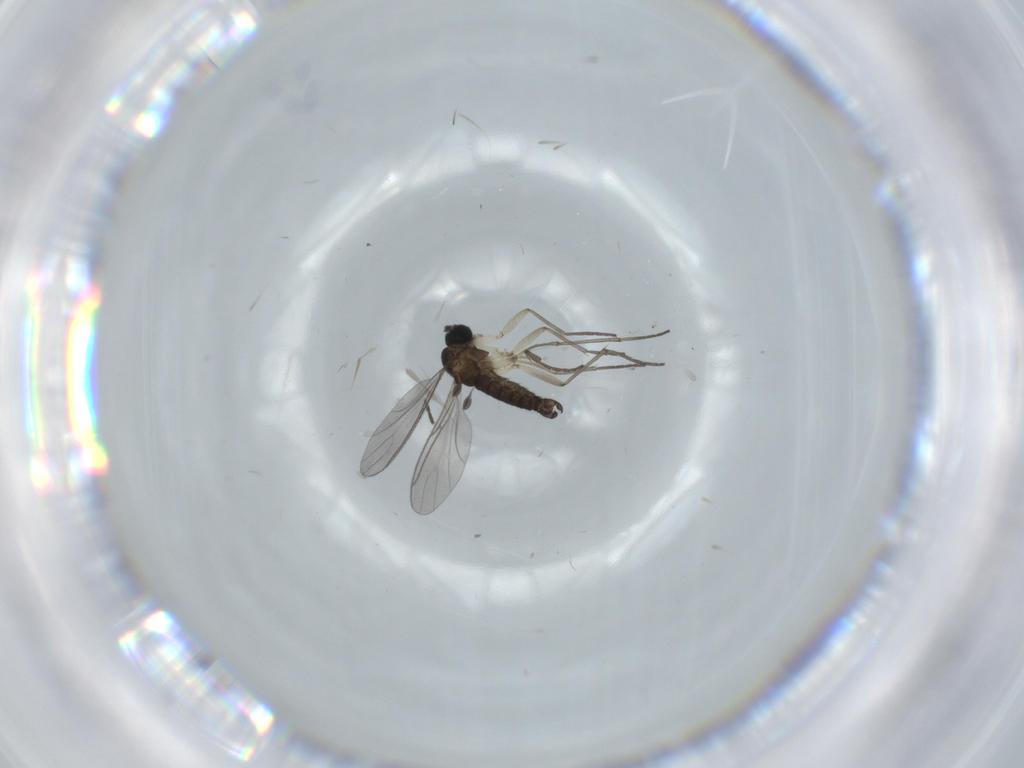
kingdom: Animalia
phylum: Arthropoda
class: Insecta
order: Diptera
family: Sciaridae
